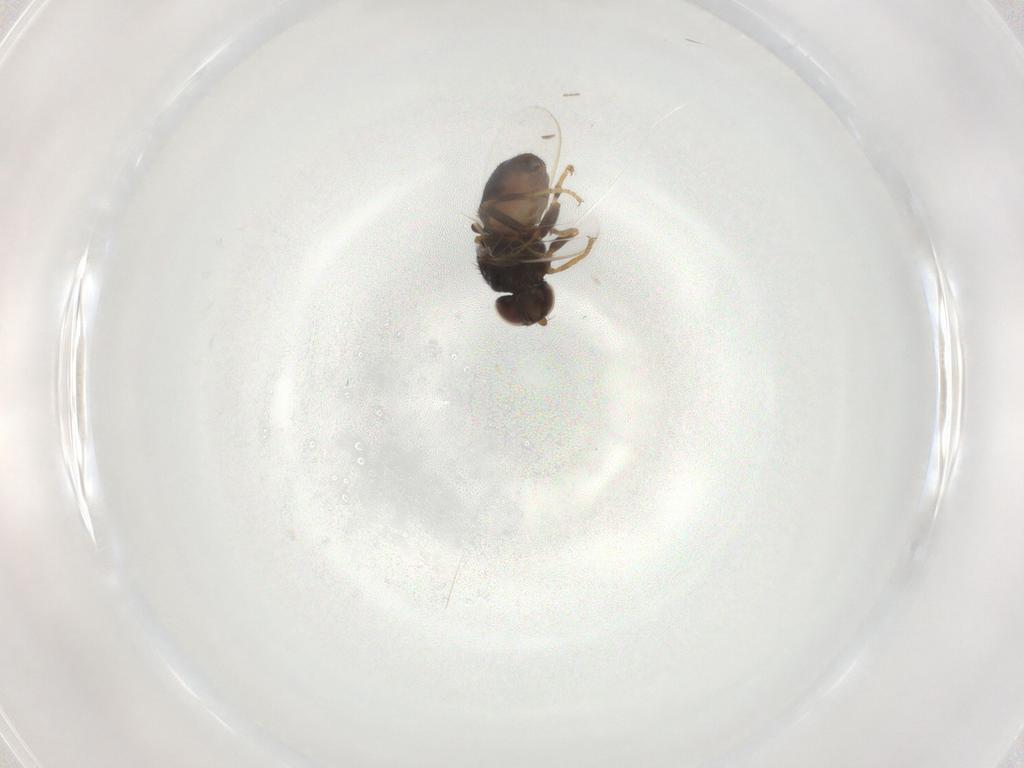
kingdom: Animalia
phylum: Arthropoda
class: Insecta
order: Diptera
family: Chloropidae
